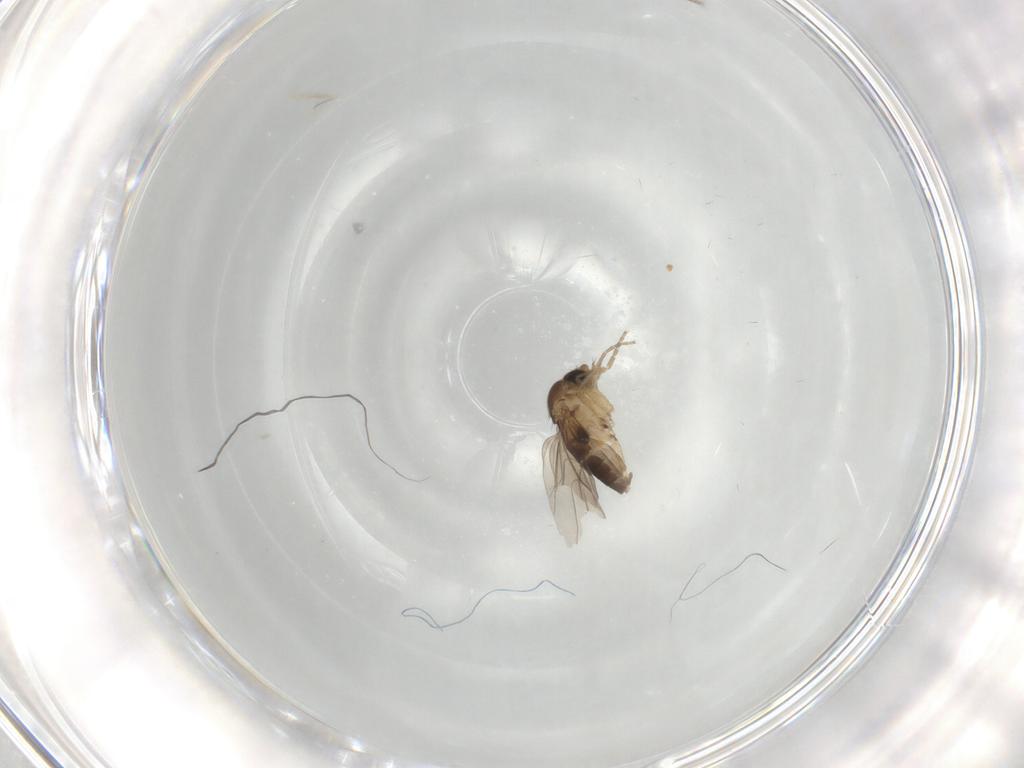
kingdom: Animalia
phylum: Arthropoda
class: Insecta
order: Diptera
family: Phoridae
